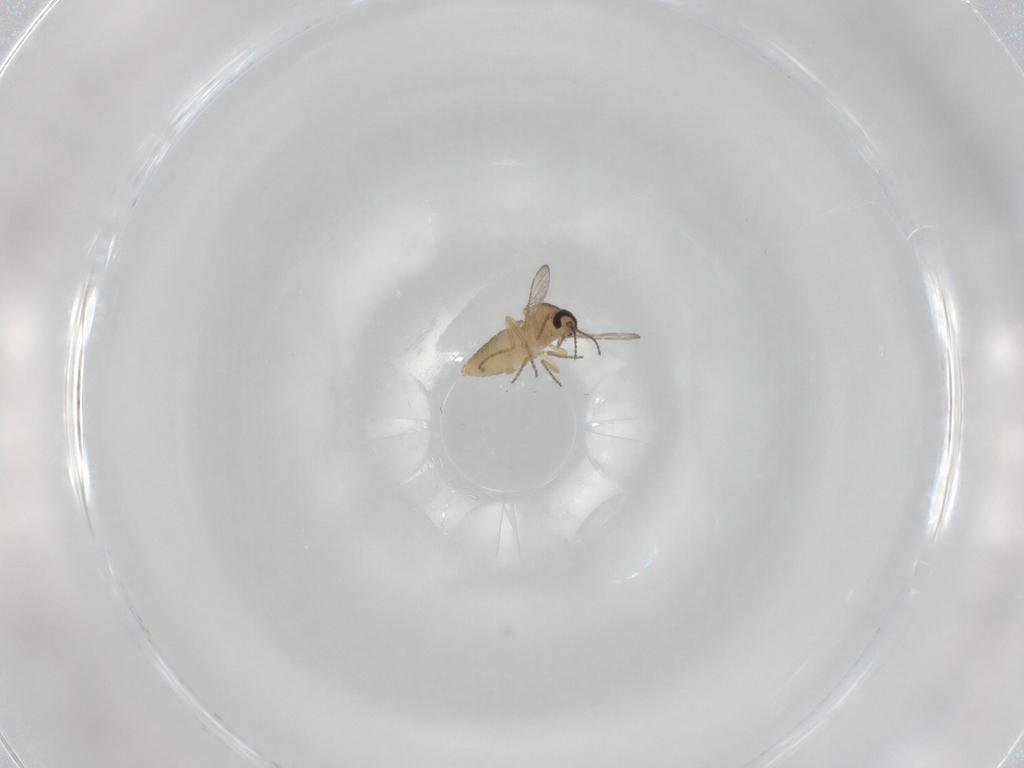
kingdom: Animalia
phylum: Arthropoda
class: Insecta
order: Diptera
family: Ceratopogonidae
